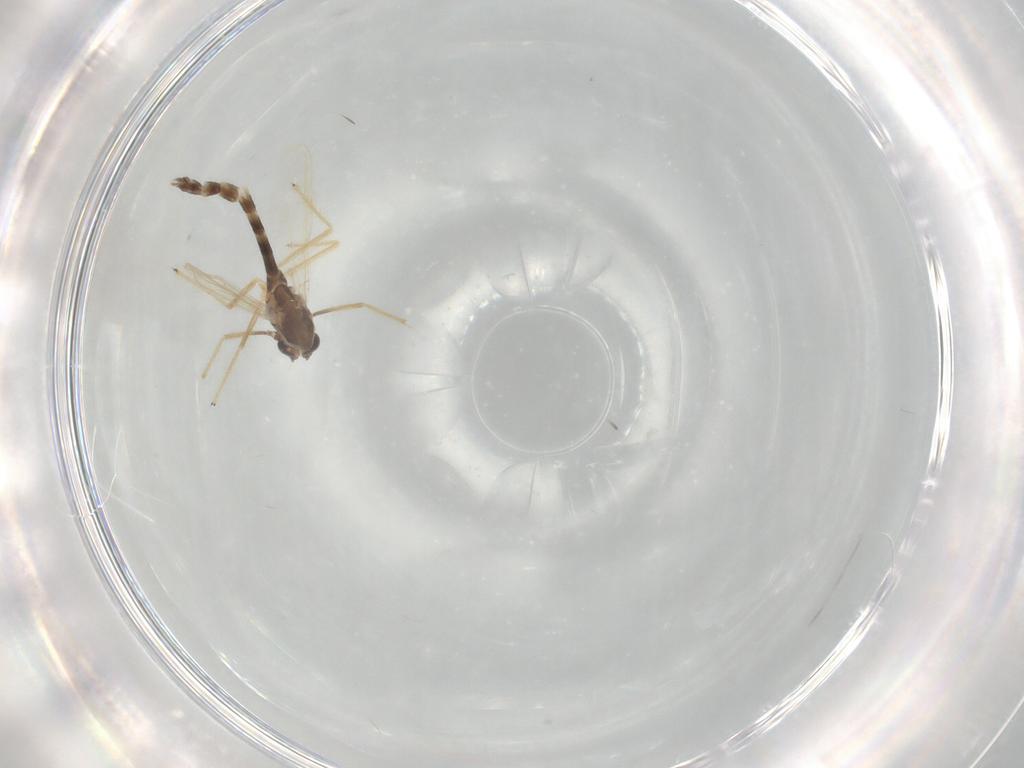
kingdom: Animalia
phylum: Arthropoda
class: Insecta
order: Diptera
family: Chironomidae
